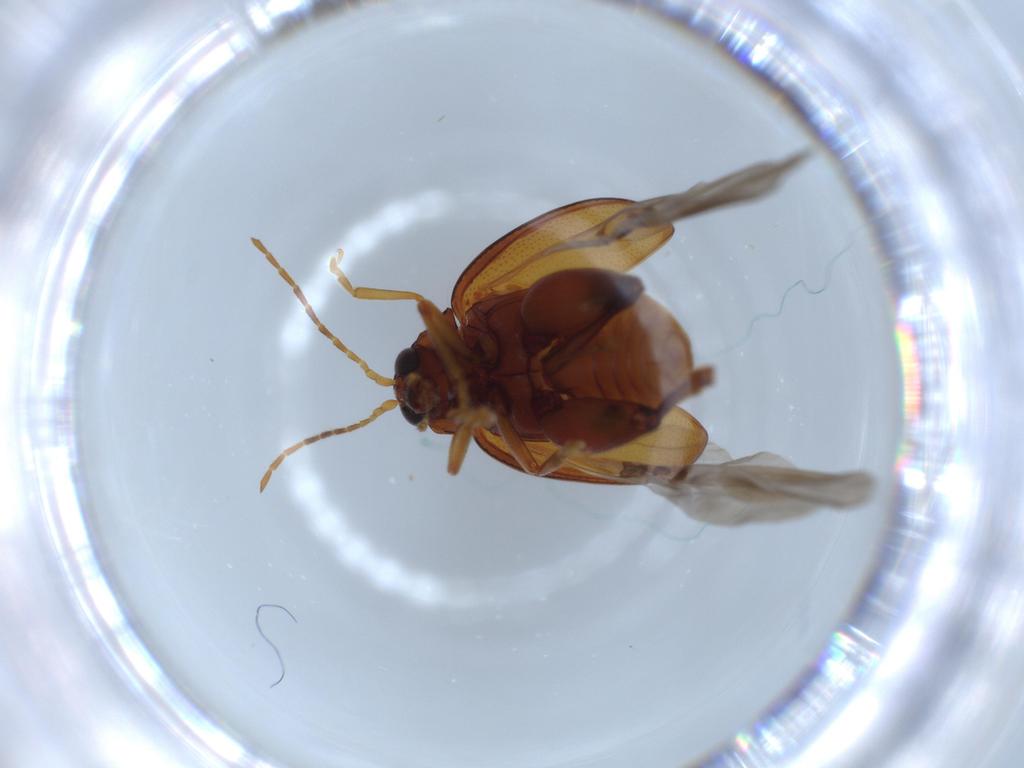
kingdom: Animalia
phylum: Arthropoda
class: Insecta
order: Coleoptera
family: Chrysomelidae
